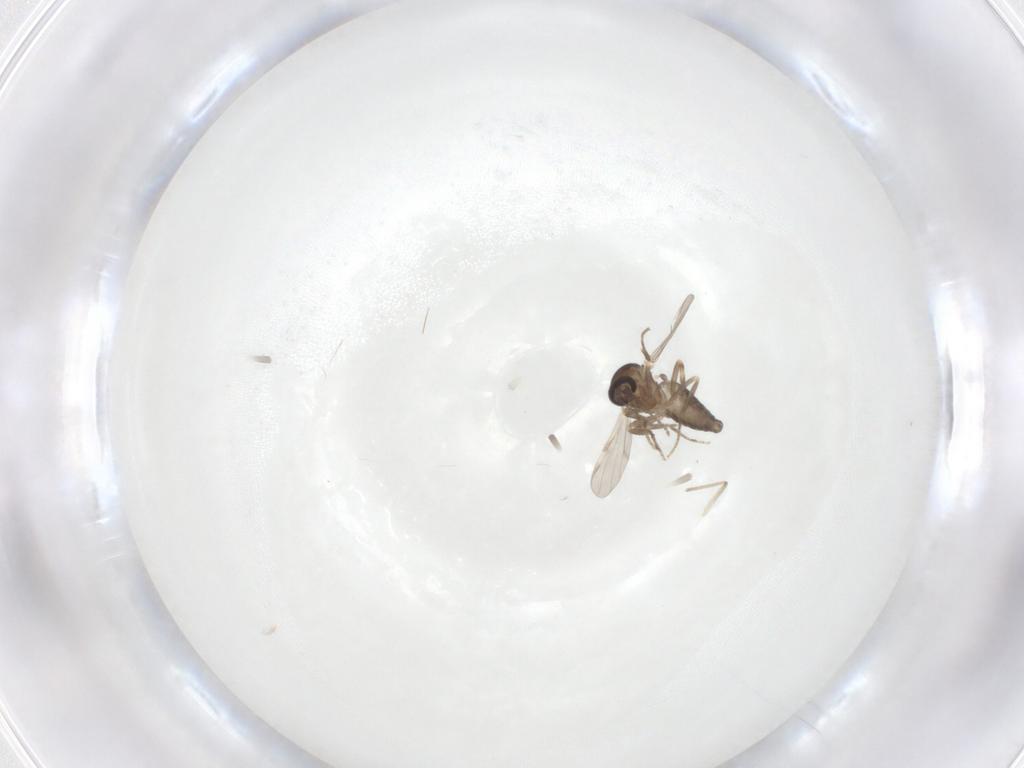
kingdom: Animalia
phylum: Arthropoda
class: Insecta
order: Diptera
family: Chironomidae
